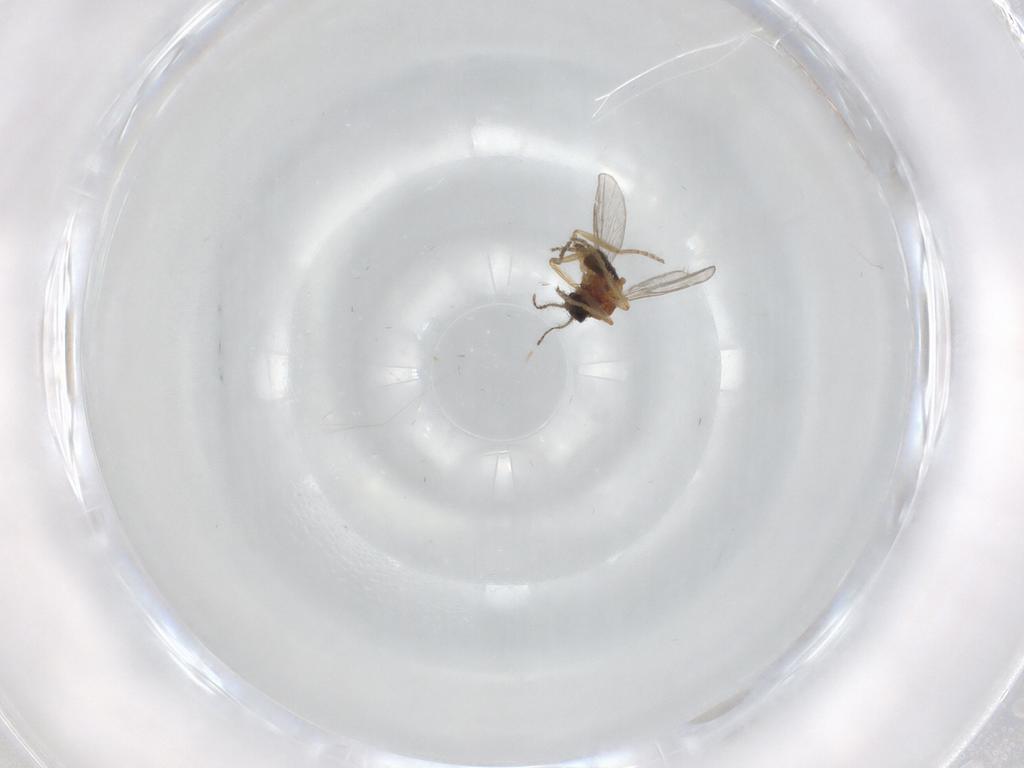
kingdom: Animalia
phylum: Arthropoda
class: Insecta
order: Diptera
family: Ceratopogonidae
